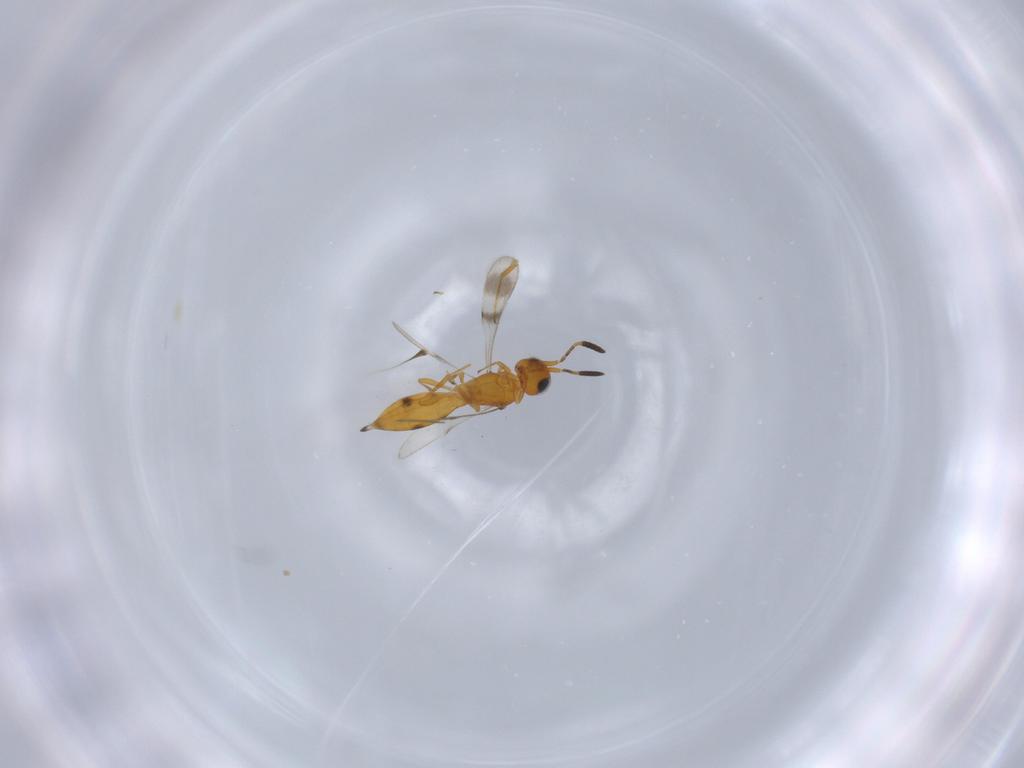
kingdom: Animalia
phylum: Arthropoda
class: Insecta
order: Hymenoptera
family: Scelionidae
